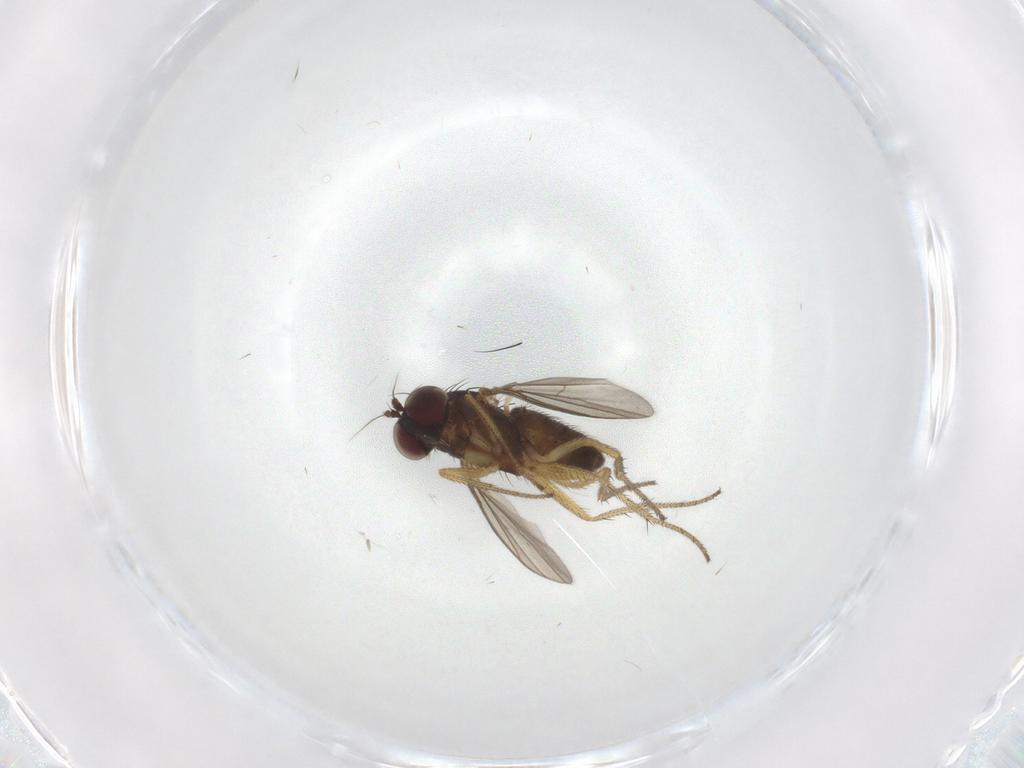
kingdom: Animalia
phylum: Arthropoda
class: Insecta
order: Diptera
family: Dolichopodidae
